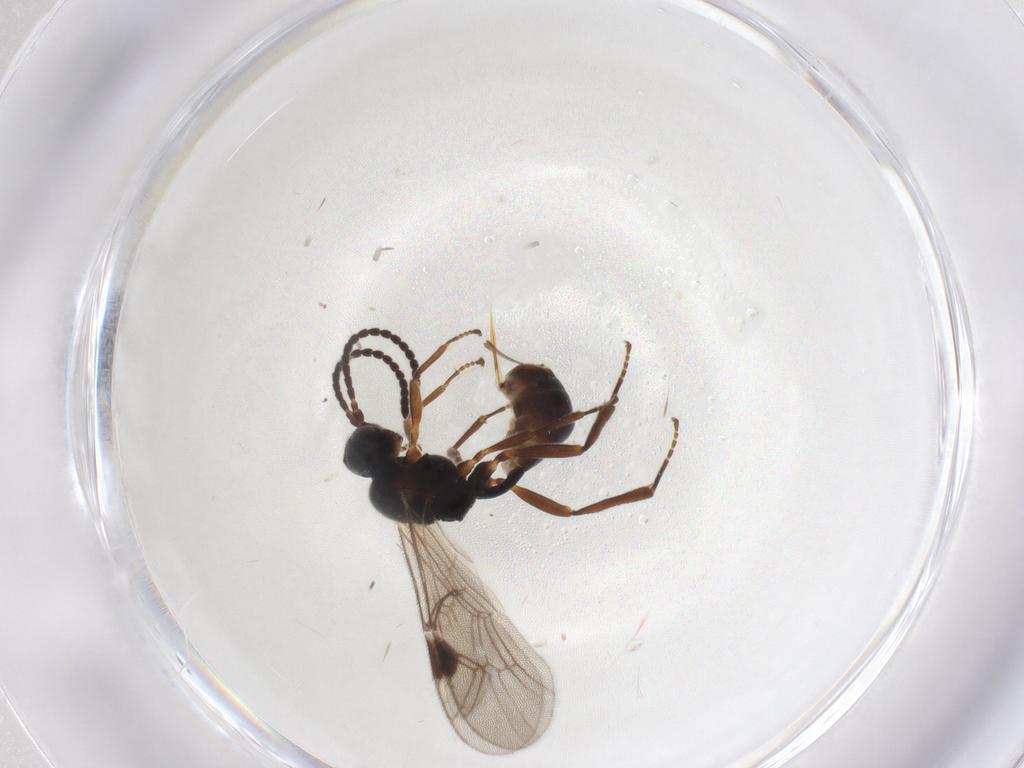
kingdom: Animalia
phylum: Arthropoda
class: Insecta
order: Hymenoptera
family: Ichneumonidae
